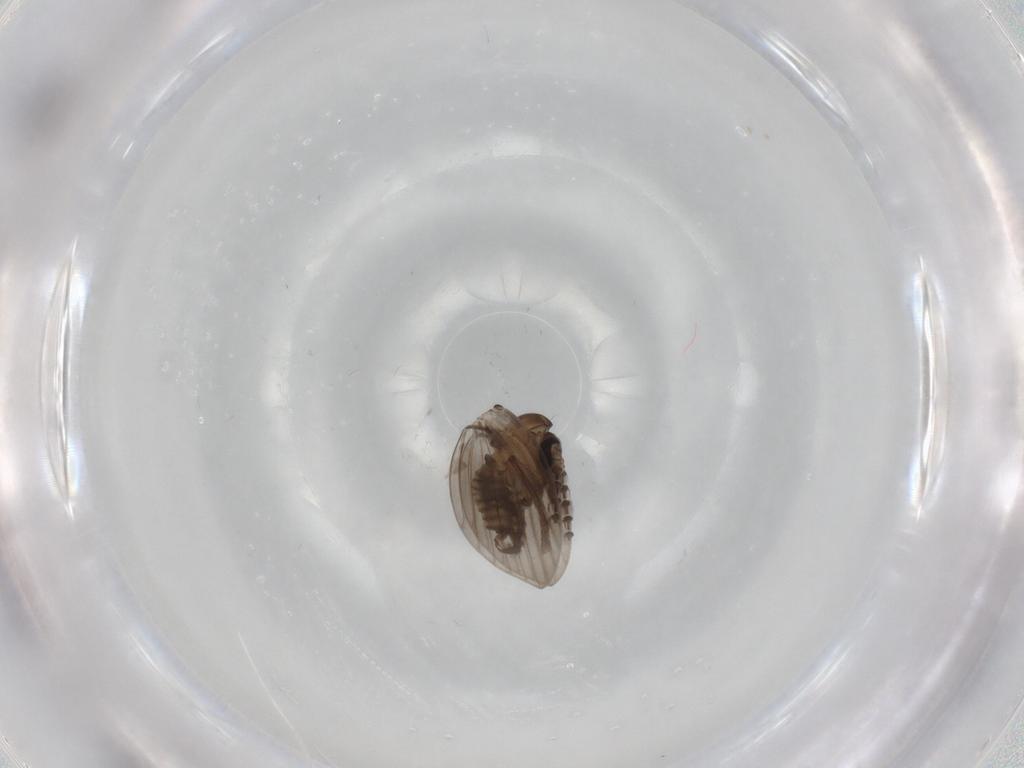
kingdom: Animalia
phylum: Arthropoda
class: Insecta
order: Diptera
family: Psychodidae
